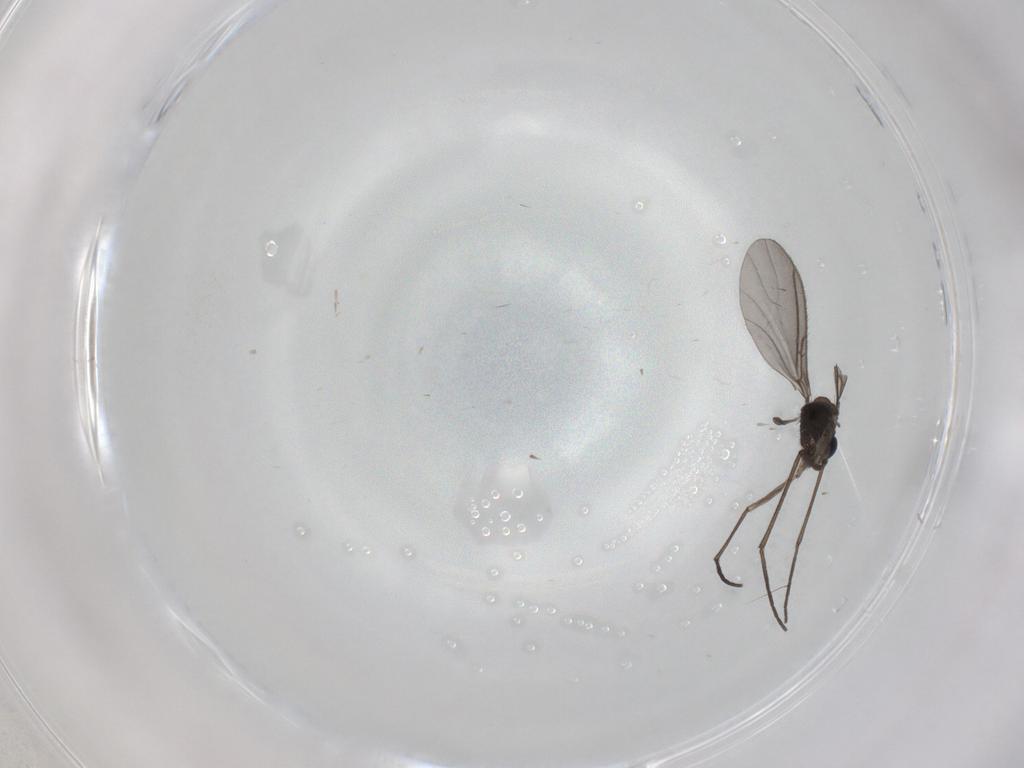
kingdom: Animalia
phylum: Arthropoda
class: Insecta
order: Diptera
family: Sciaridae
